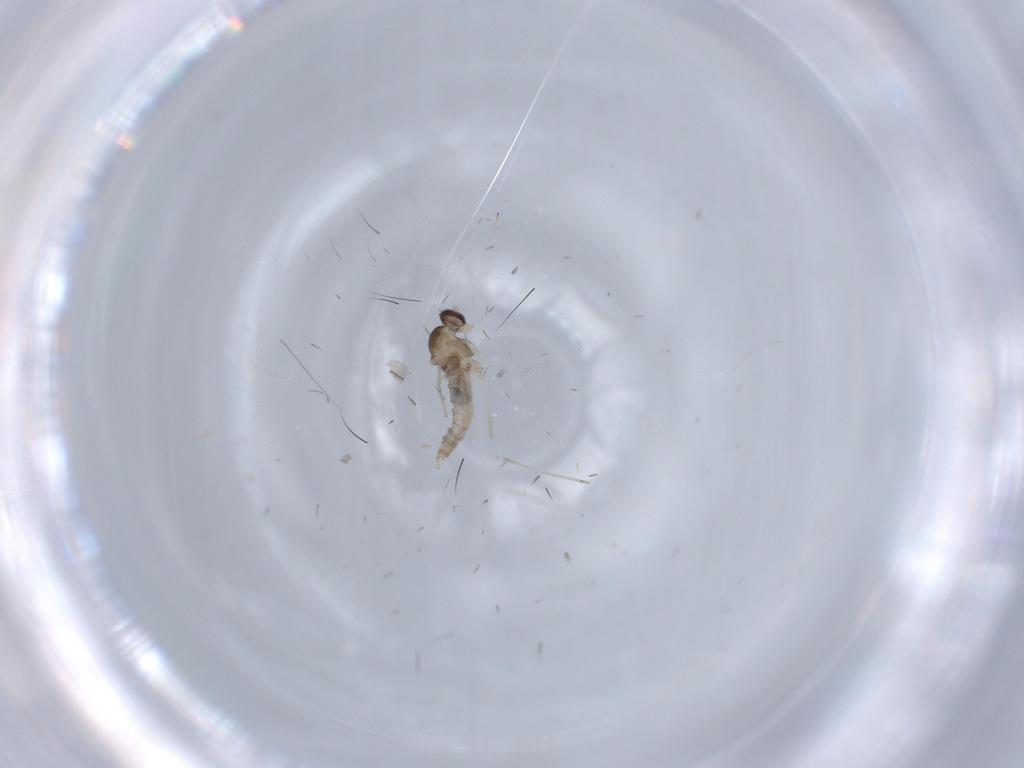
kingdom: Animalia
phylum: Arthropoda
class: Insecta
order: Diptera
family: Cecidomyiidae
